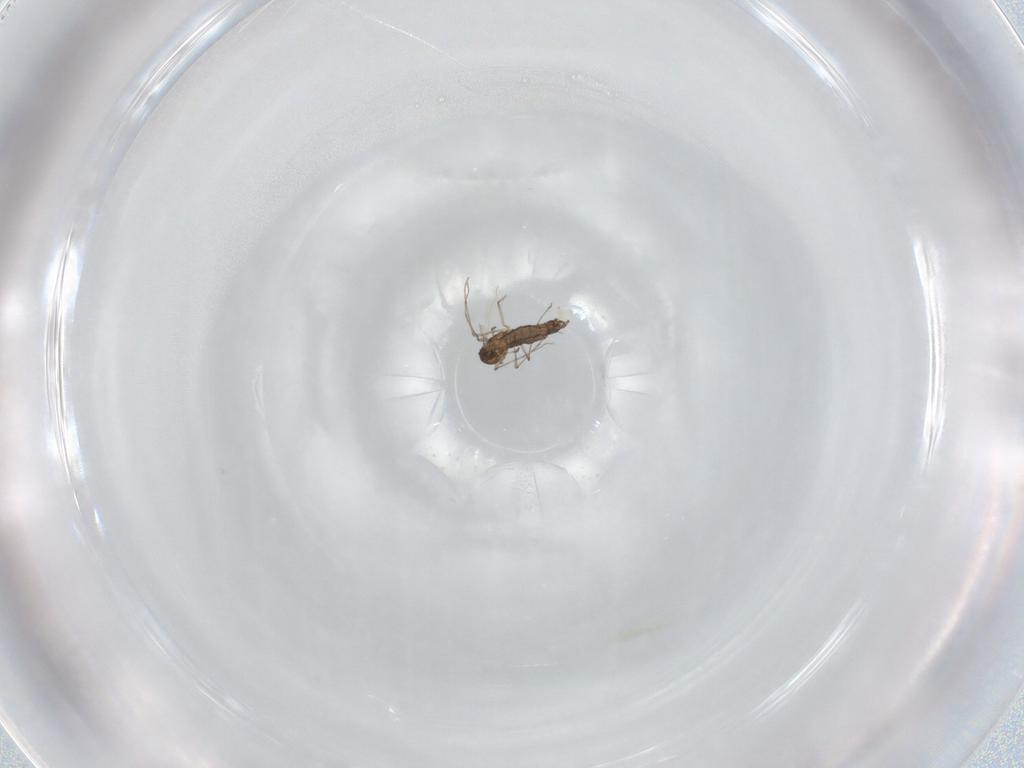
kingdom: Animalia
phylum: Arthropoda
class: Insecta
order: Diptera
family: Chironomidae
